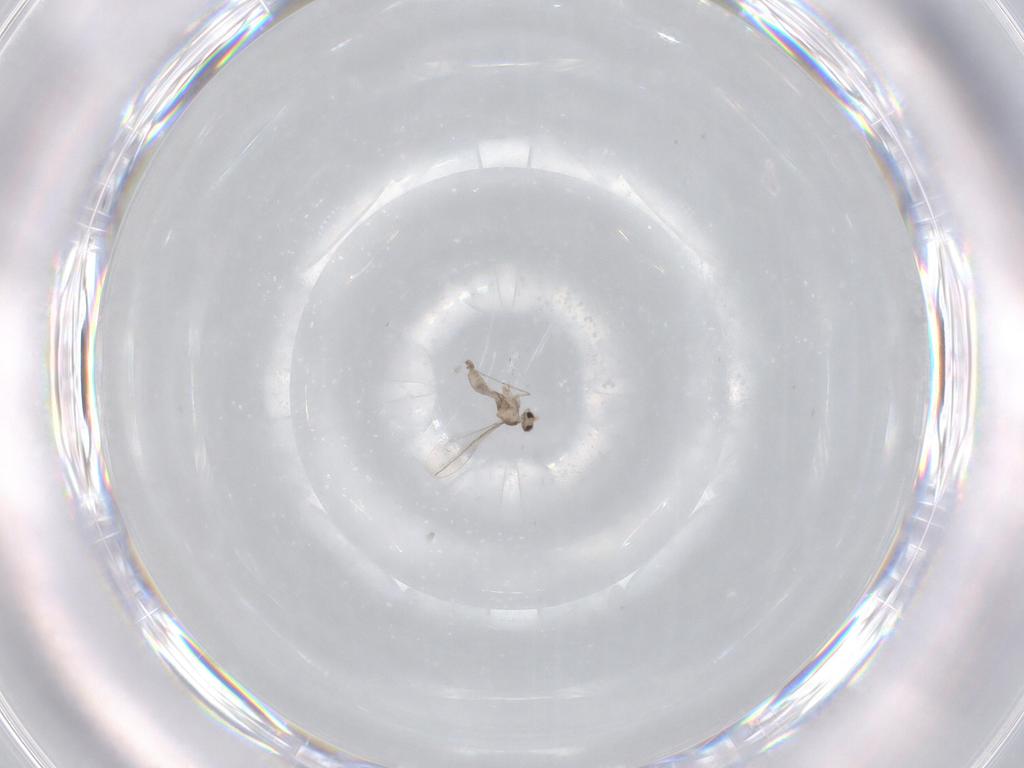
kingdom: Animalia
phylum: Arthropoda
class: Insecta
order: Diptera
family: Cecidomyiidae
